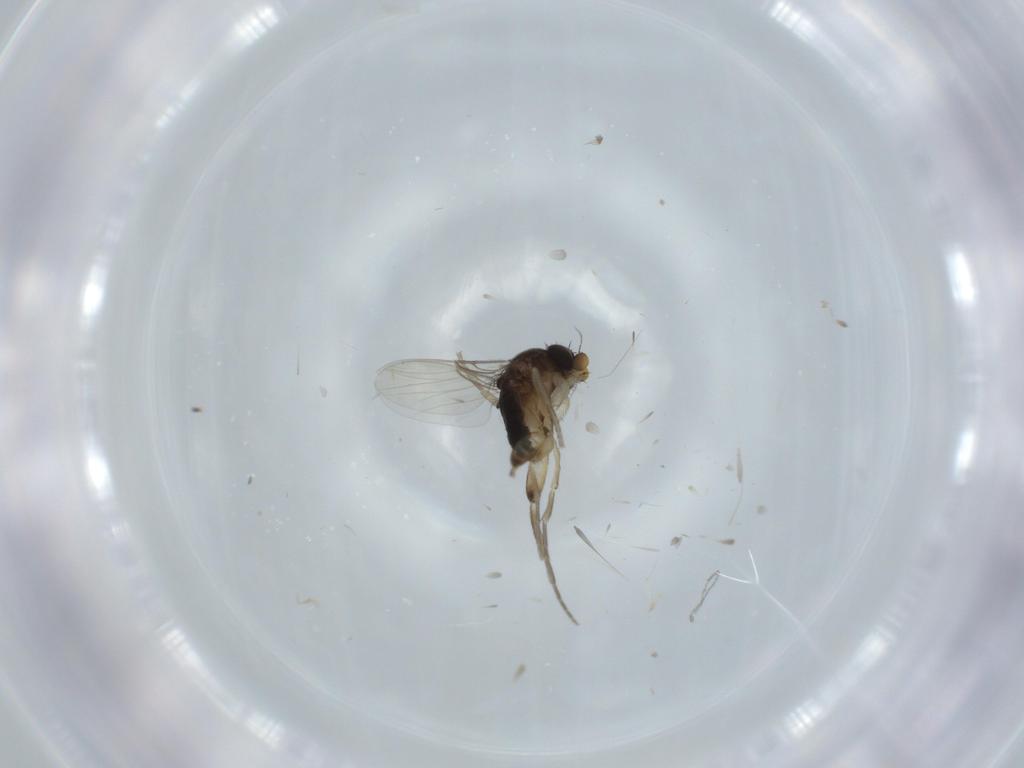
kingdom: Animalia
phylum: Arthropoda
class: Insecta
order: Diptera
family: Phoridae
